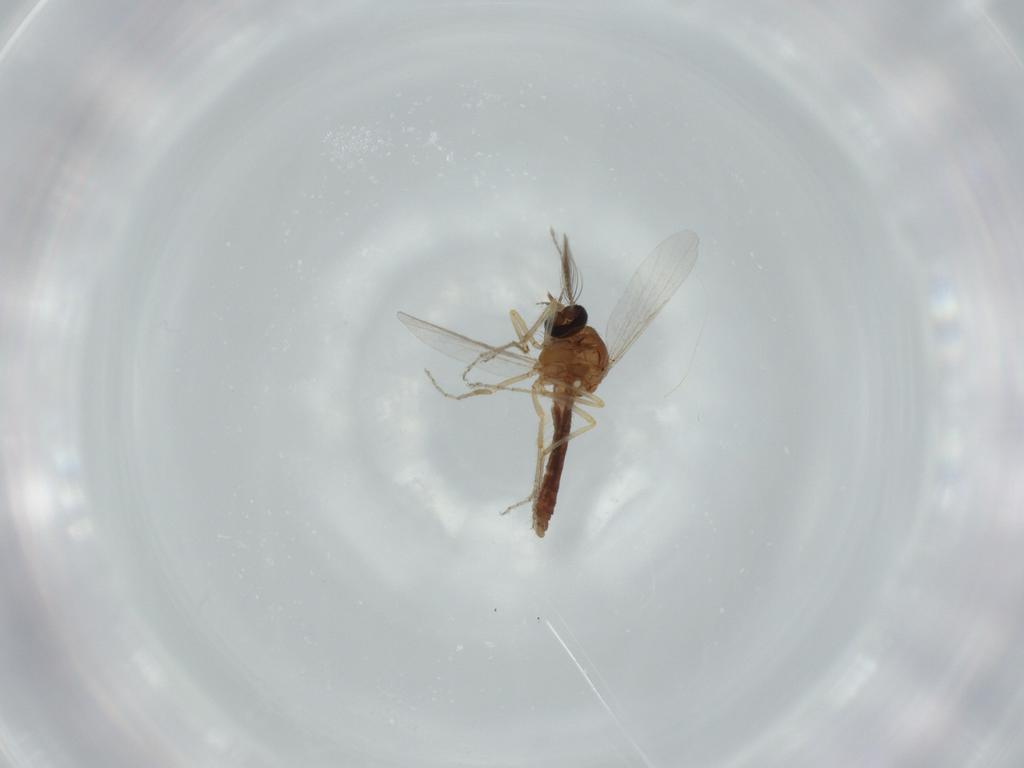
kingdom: Animalia
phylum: Arthropoda
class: Insecta
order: Diptera
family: Ceratopogonidae
